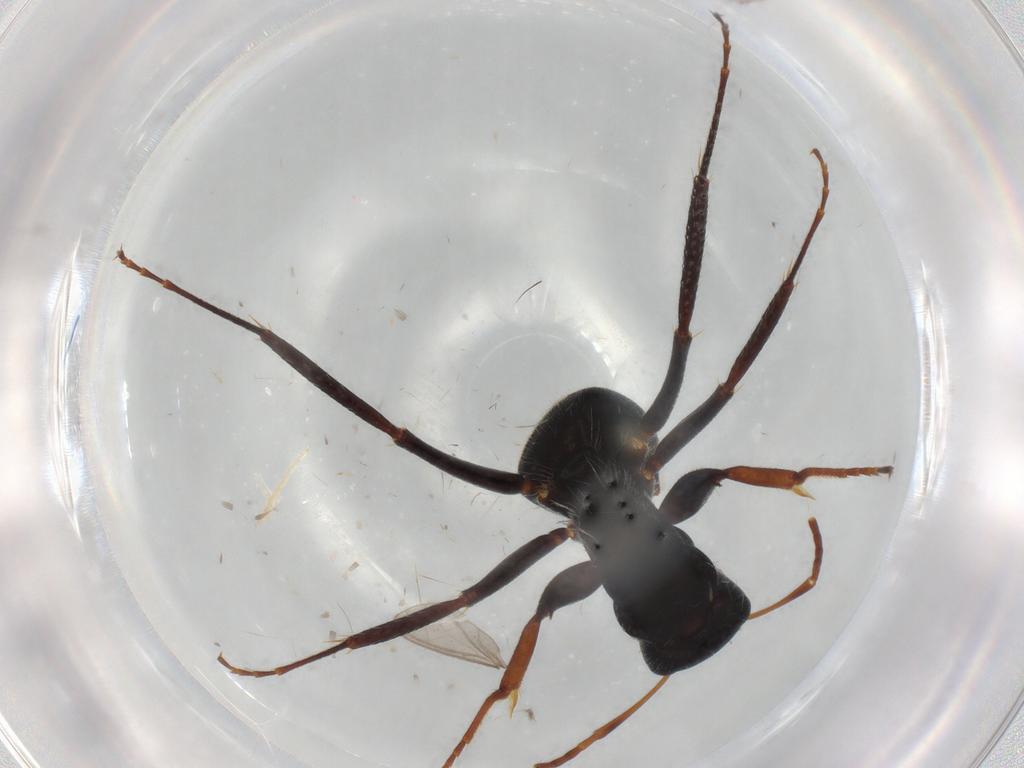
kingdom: Animalia
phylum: Arthropoda
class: Insecta
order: Hymenoptera
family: Formicidae
